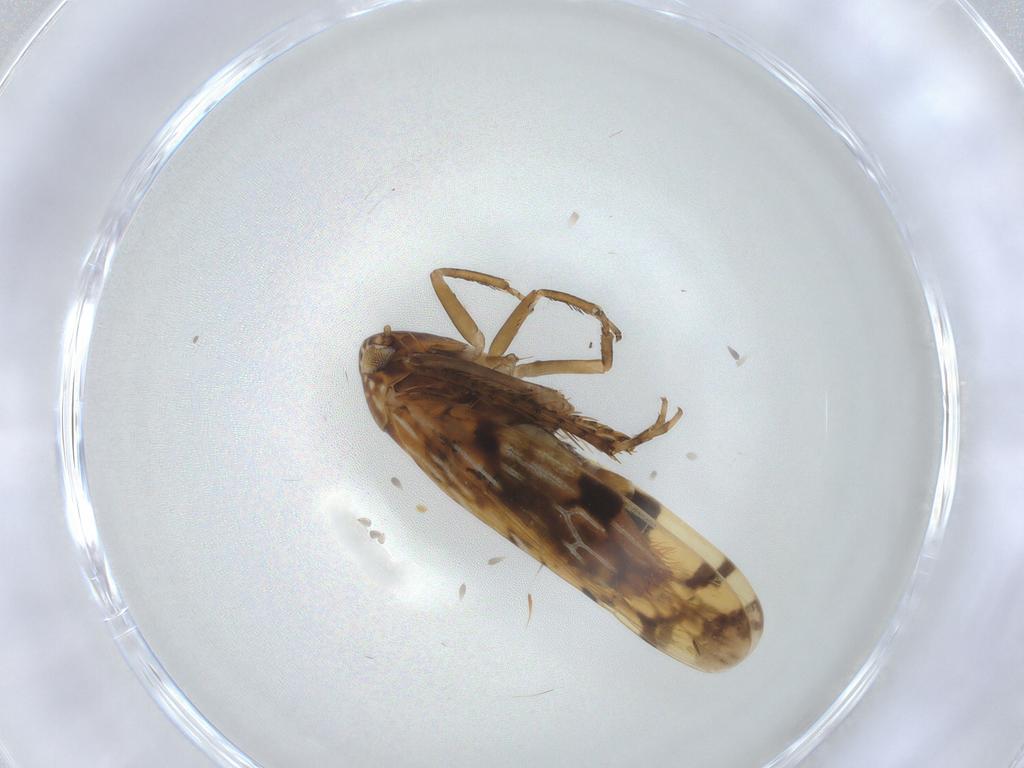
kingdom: Animalia
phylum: Arthropoda
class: Insecta
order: Hemiptera
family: Cicadellidae
